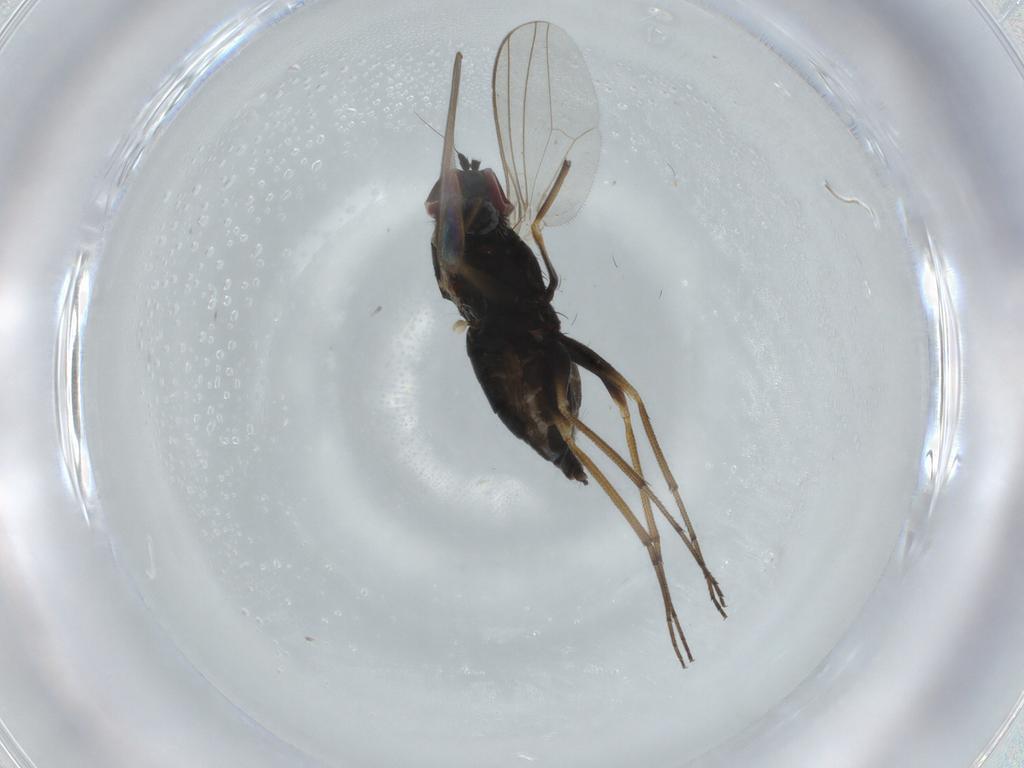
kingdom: Animalia
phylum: Arthropoda
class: Insecta
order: Diptera
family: Dolichopodidae
